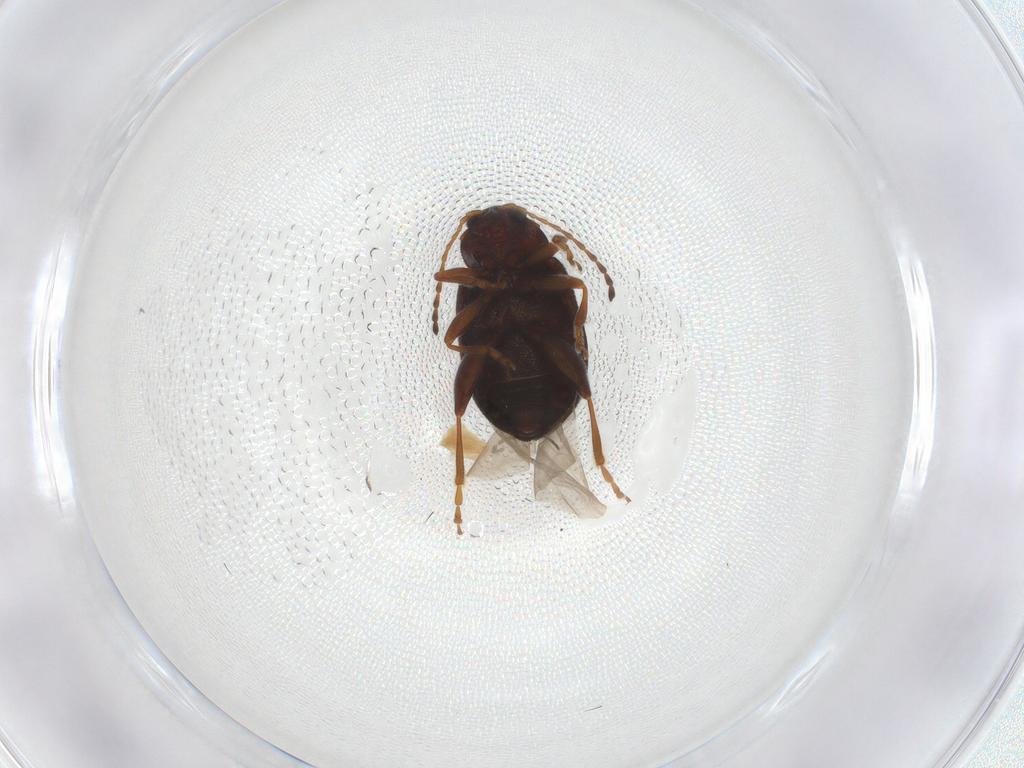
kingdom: Animalia
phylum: Arthropoda
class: Insecta
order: Coleoptera
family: Chrysomelidae
